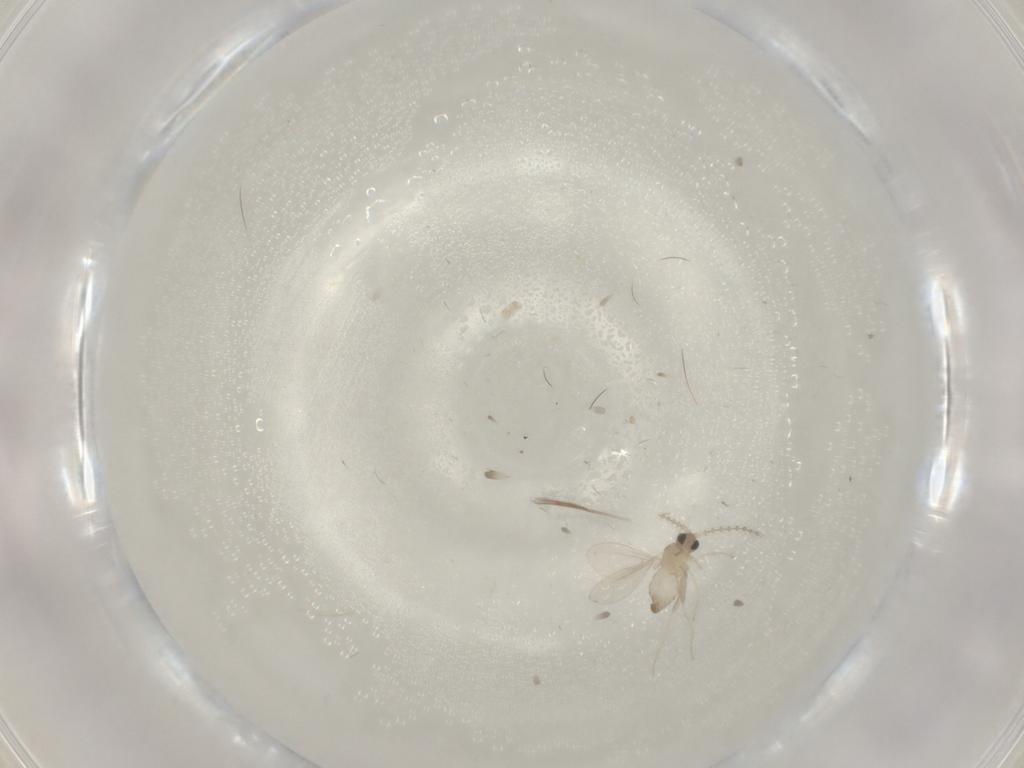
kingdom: Animalia
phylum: Arthropoda
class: Insecta
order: Diptera
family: Cecidomyiidae
